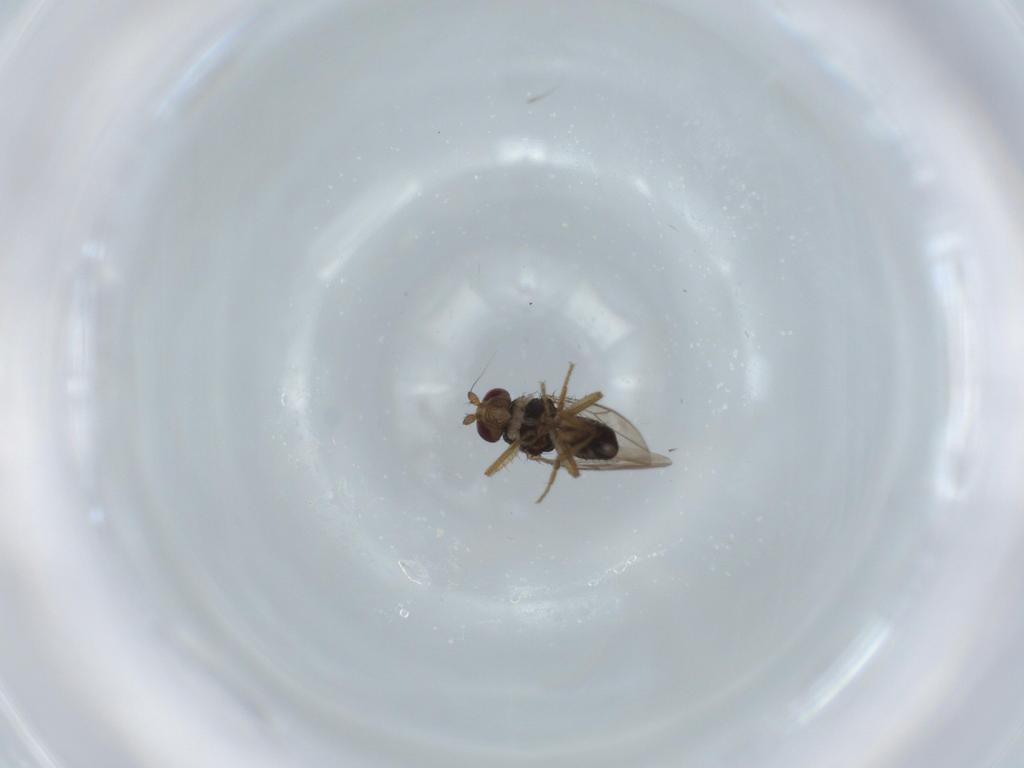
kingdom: Animalia
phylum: Arthropoda
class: Insecta
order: Diptera
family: Sphaeroceridae
